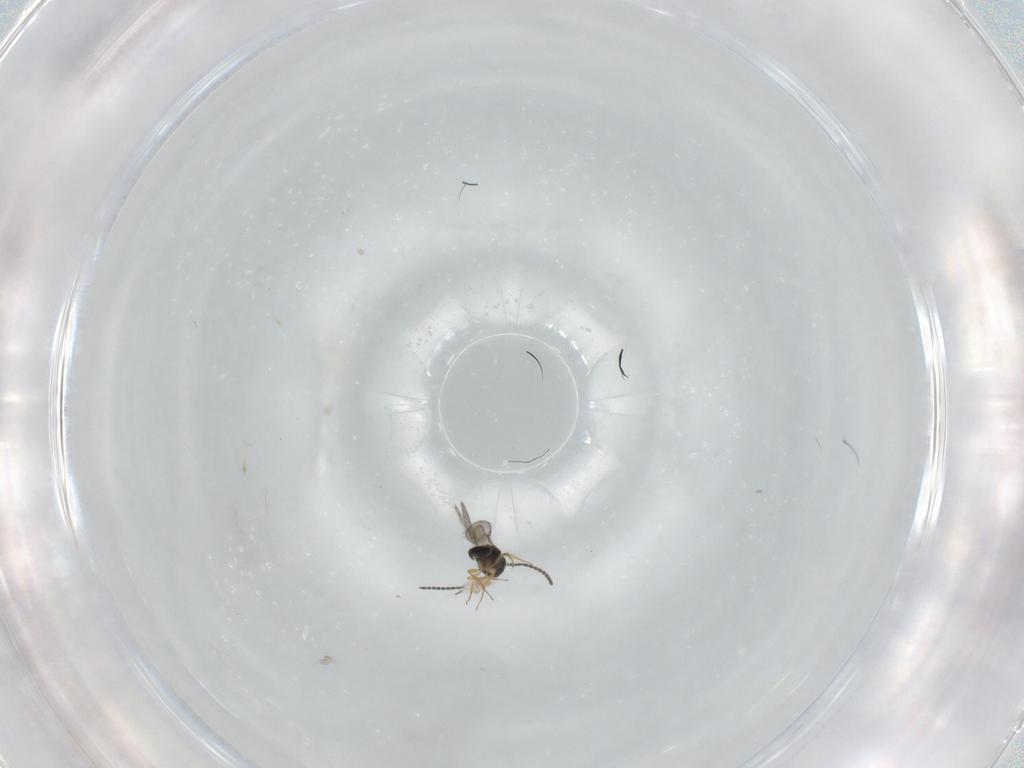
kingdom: Animalia
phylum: Arthropoda
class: Insecta
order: Hymenoptera
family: Scelionidae
